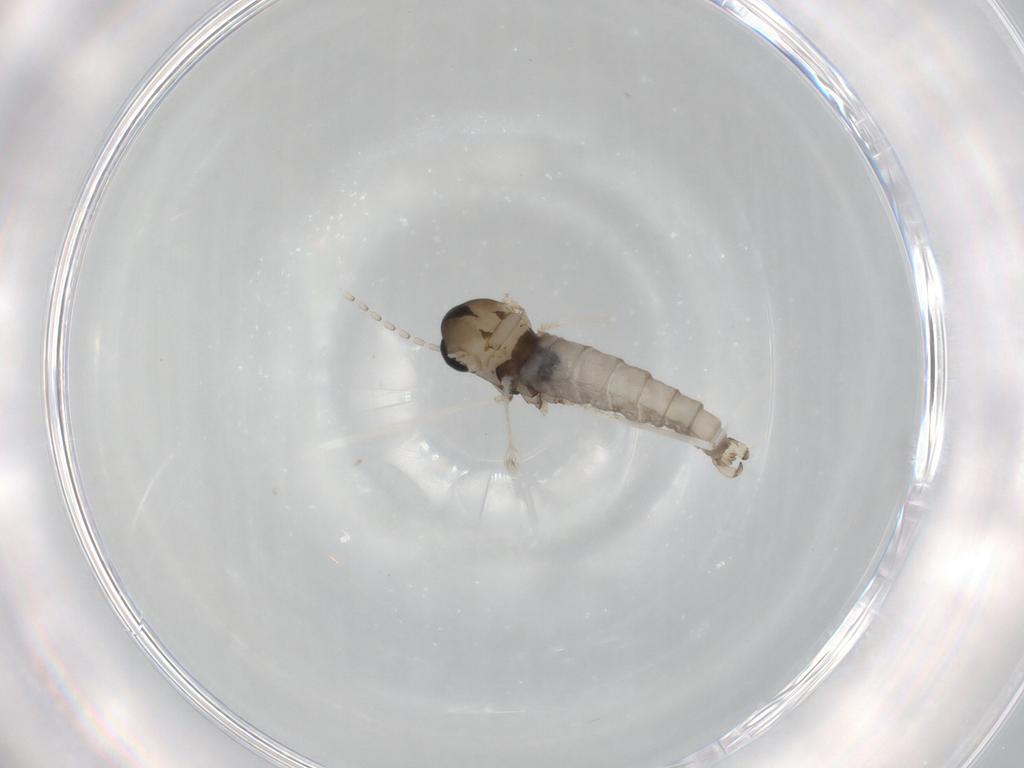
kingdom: Animalia
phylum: Arthropoda
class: Insecta
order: Diptera
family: Cecidomyiidae
